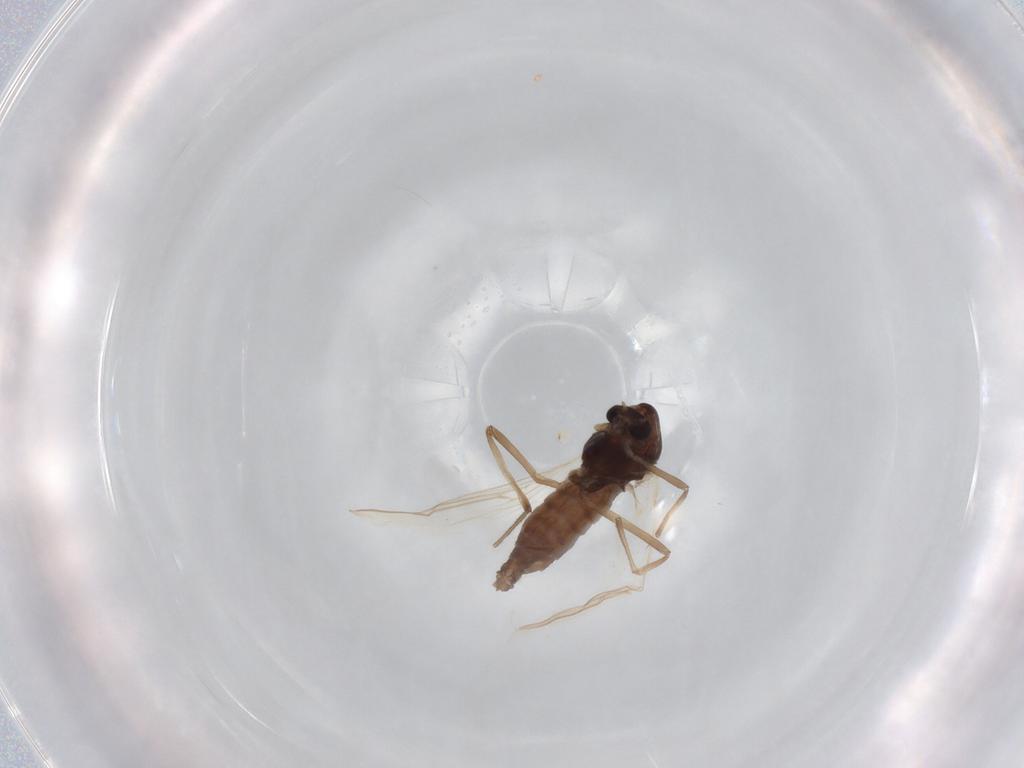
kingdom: Animalia
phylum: Arthropoda
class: Insecta
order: Diptera
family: Chironomidae
